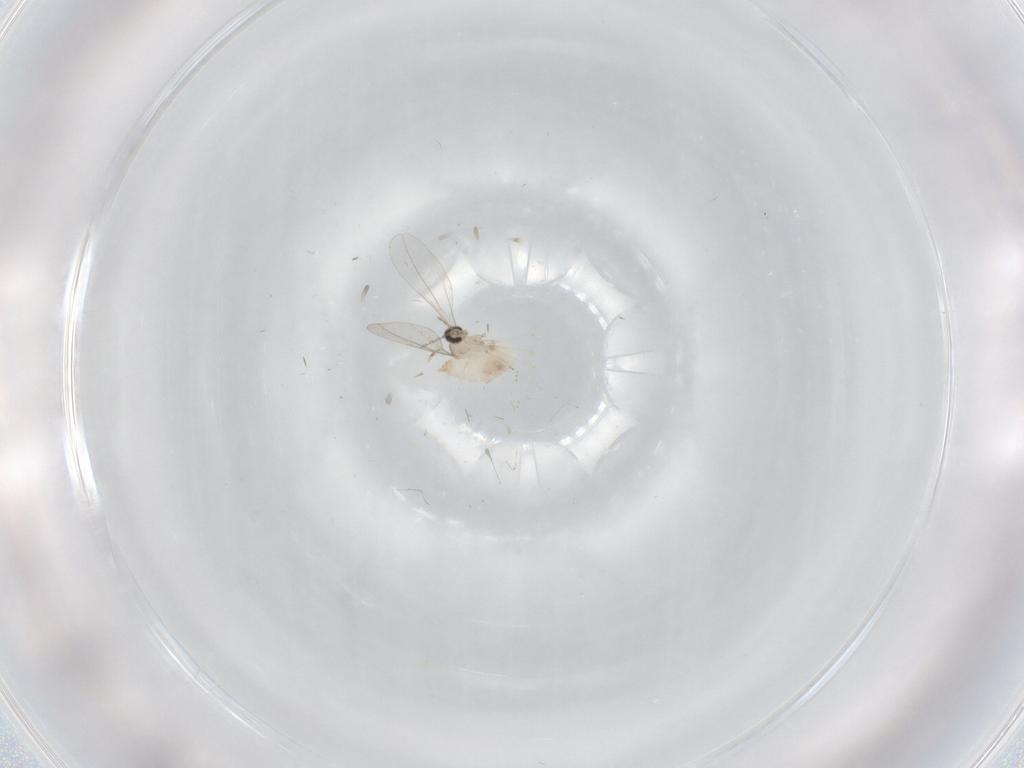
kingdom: Animalia
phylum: Arthropoda
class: Insecta
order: Diptera
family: Cecidomyiidae
